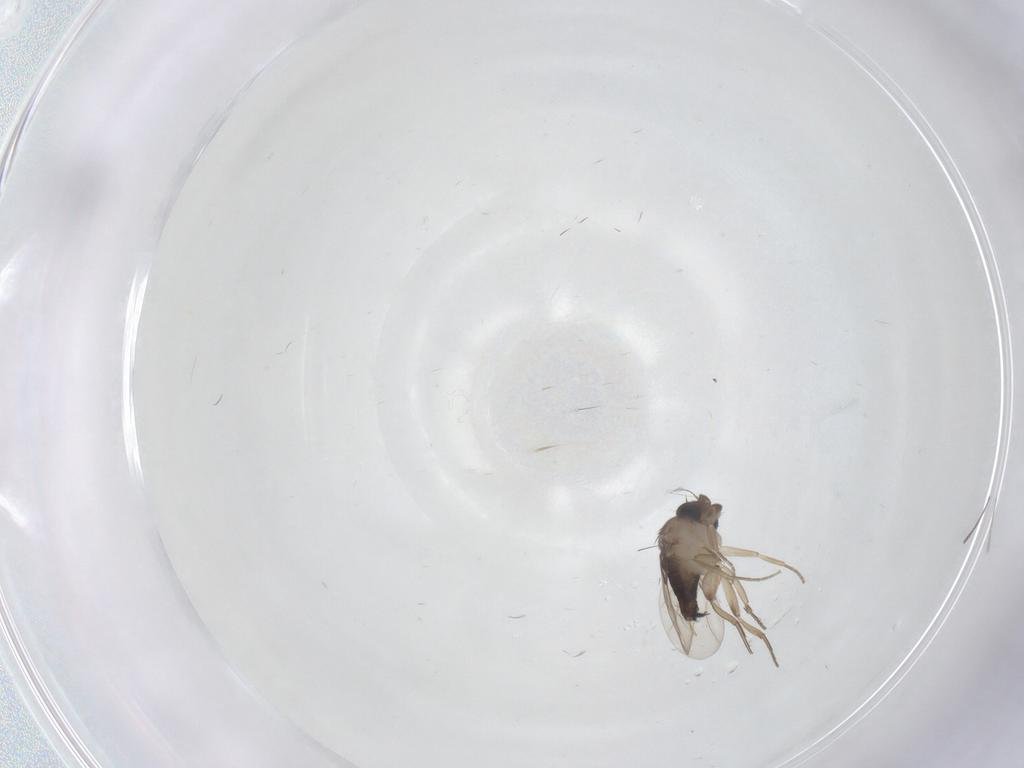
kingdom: Animalia
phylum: Arthropoda
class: Insecta
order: Diptera
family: Phoridae
